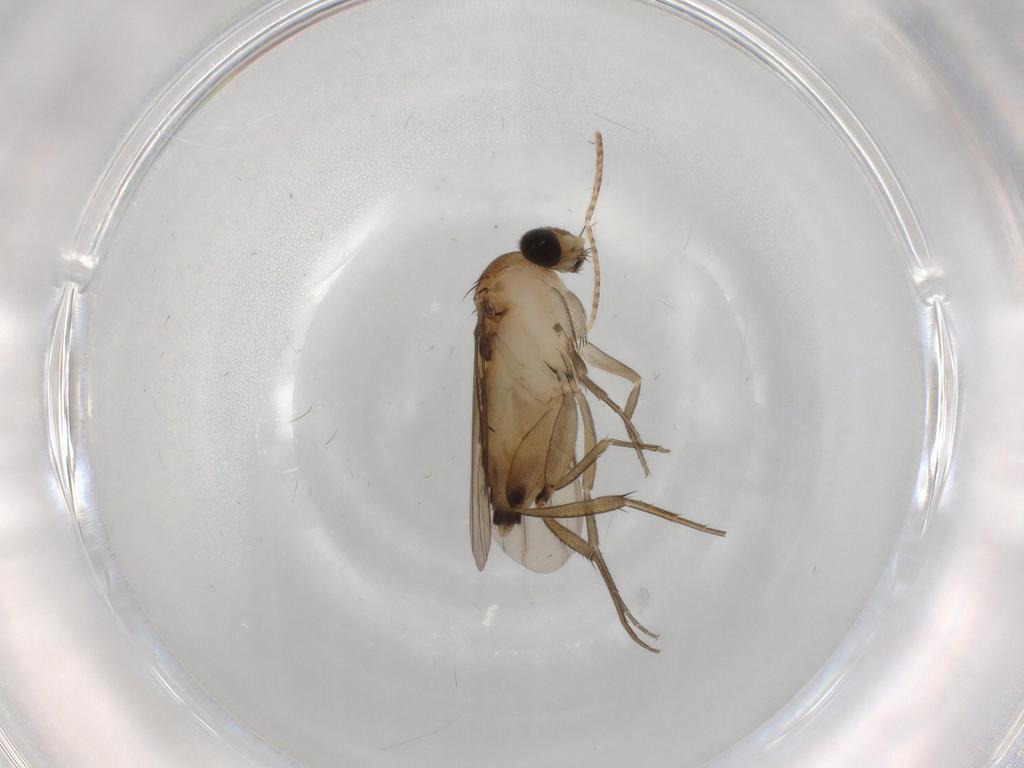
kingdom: Animalia
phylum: Arthropoda
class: Insecta
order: Diptera
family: Phoridae
